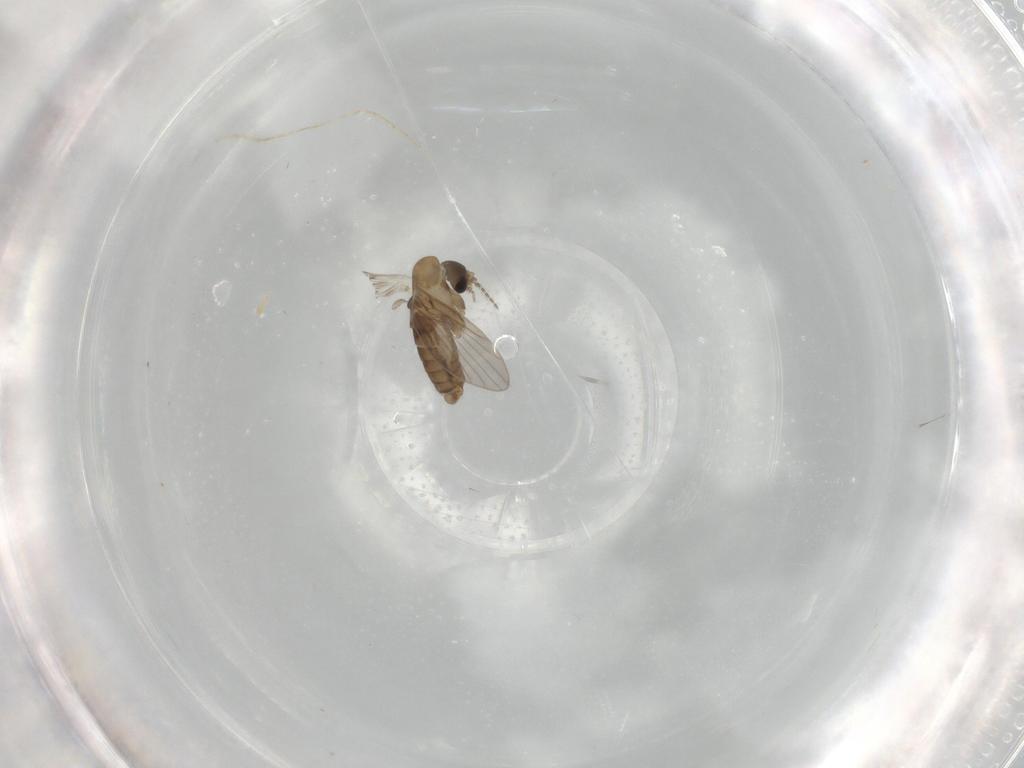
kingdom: Animalia
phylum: Arthropoda
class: Insecta
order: Diptera
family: Psychodidae
